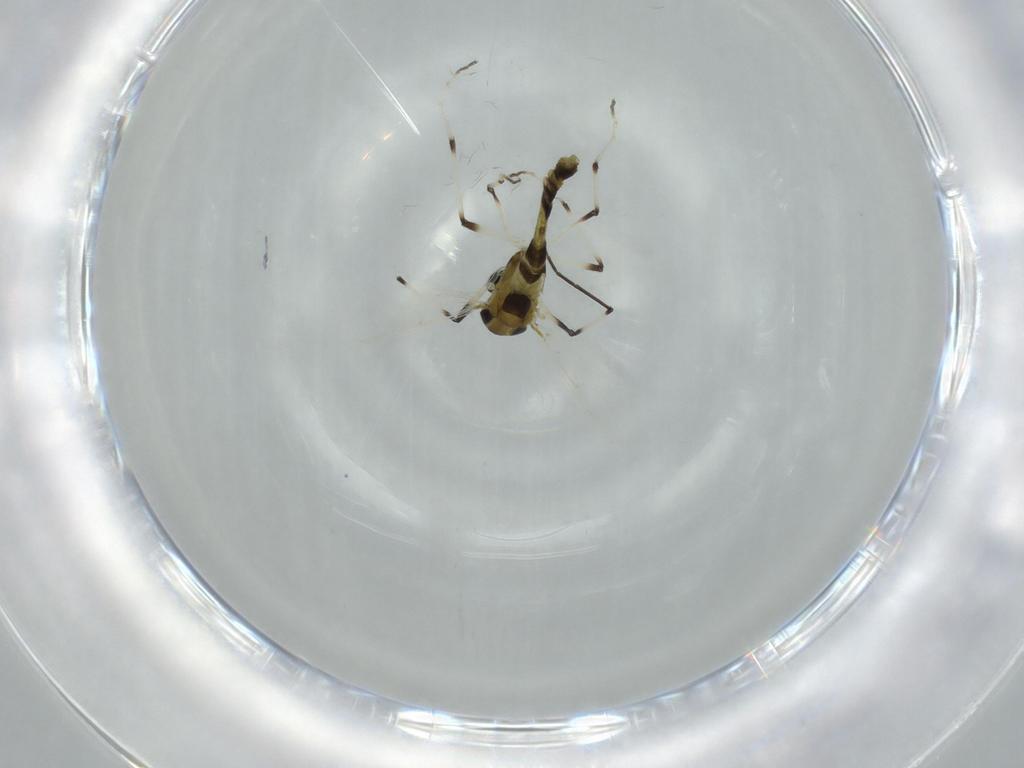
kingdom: Animalia
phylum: Arthropoda
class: Insecta
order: Diptera
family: Chironomidae
